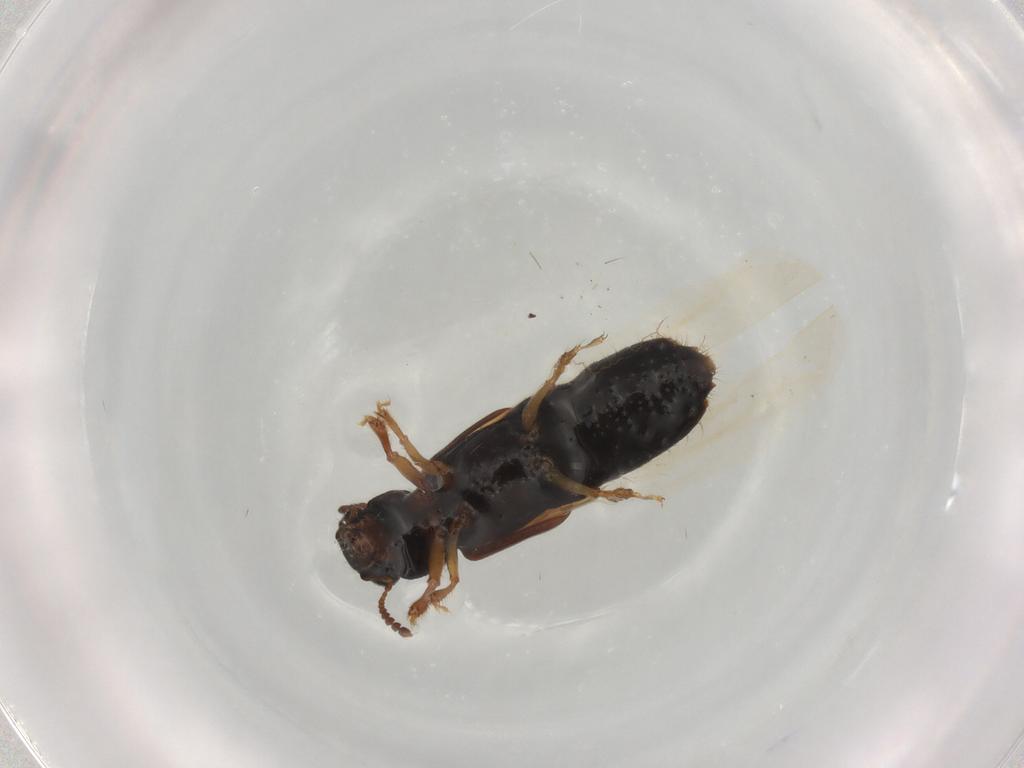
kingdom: Animalia
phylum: Arthropoda
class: Insecta
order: Coleoptera
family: Staphylinidae
